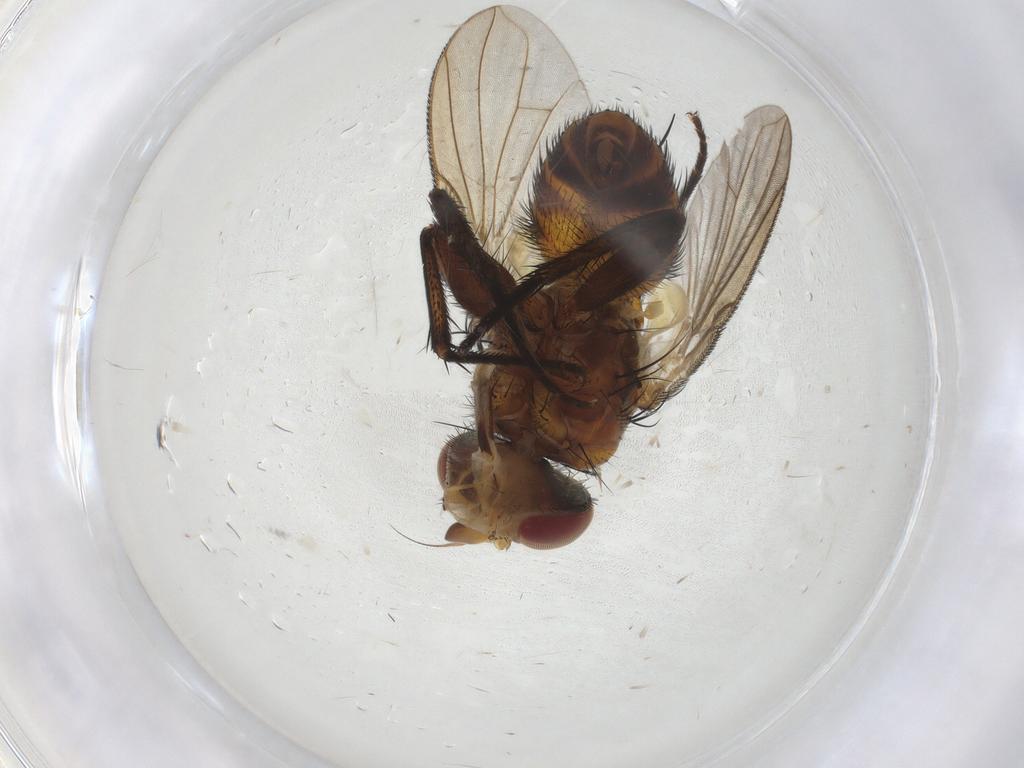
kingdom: Animalia
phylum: Arthropoda
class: Insecta
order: Diptera
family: Tachinidae
